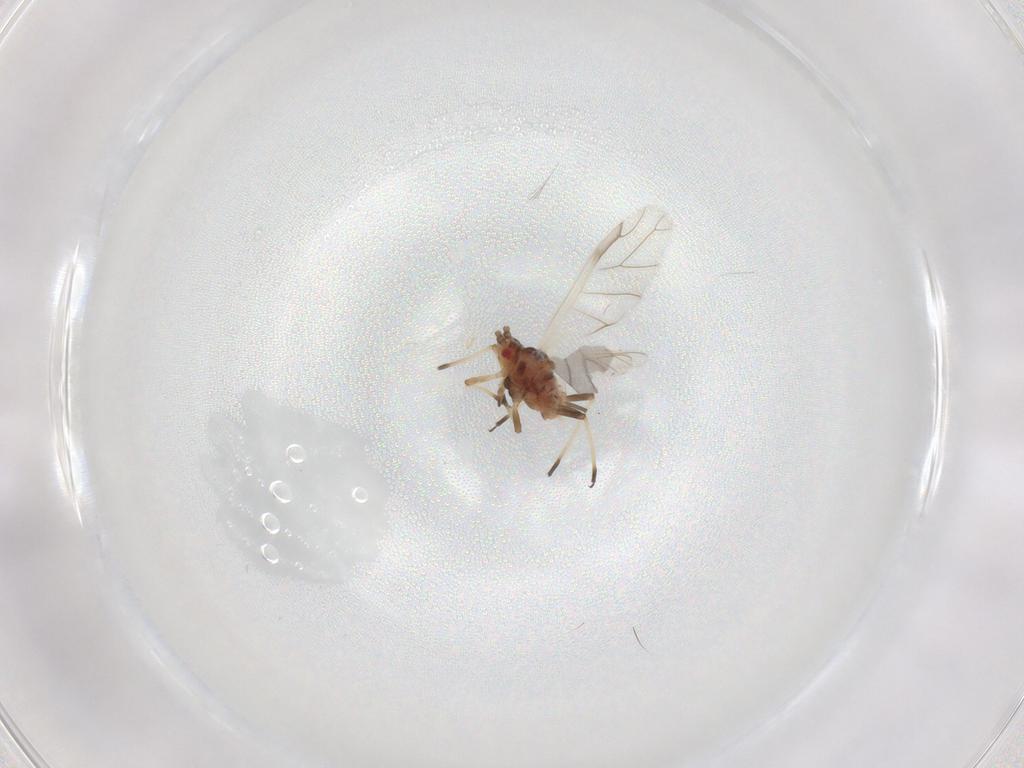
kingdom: Animalia
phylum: Arthropoda
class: Insecta
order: Hemiptera
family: Aphididae
